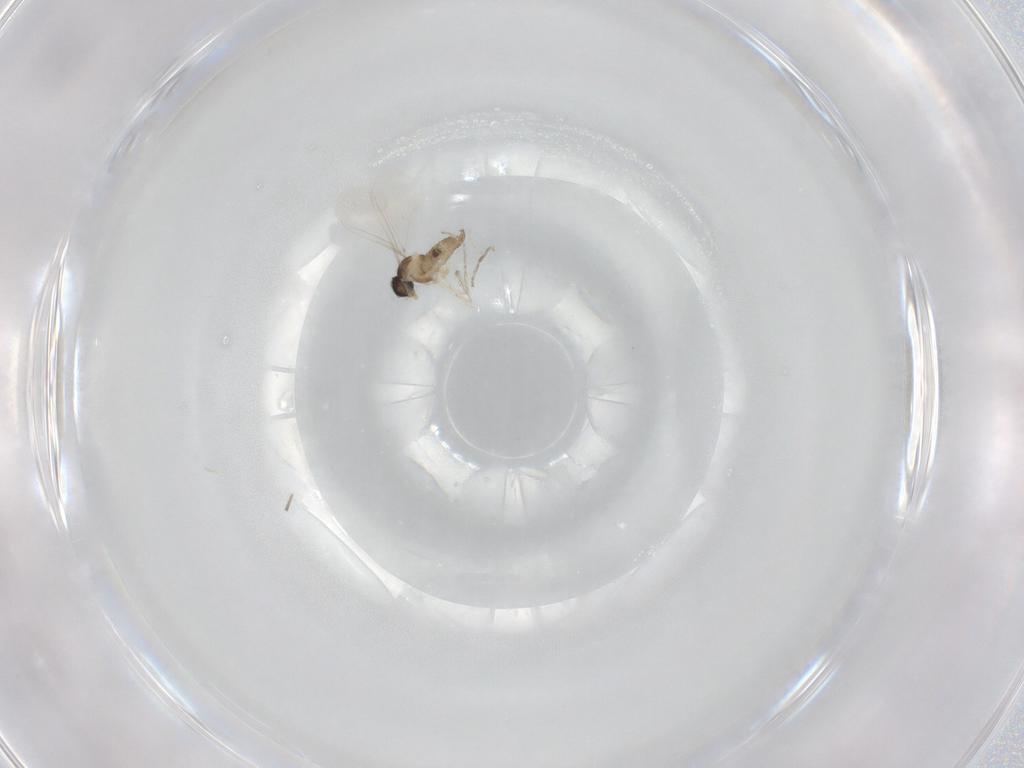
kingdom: Animalia
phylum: Arthropoda
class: Insecta
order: Diptera
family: Cecidomyiidae
